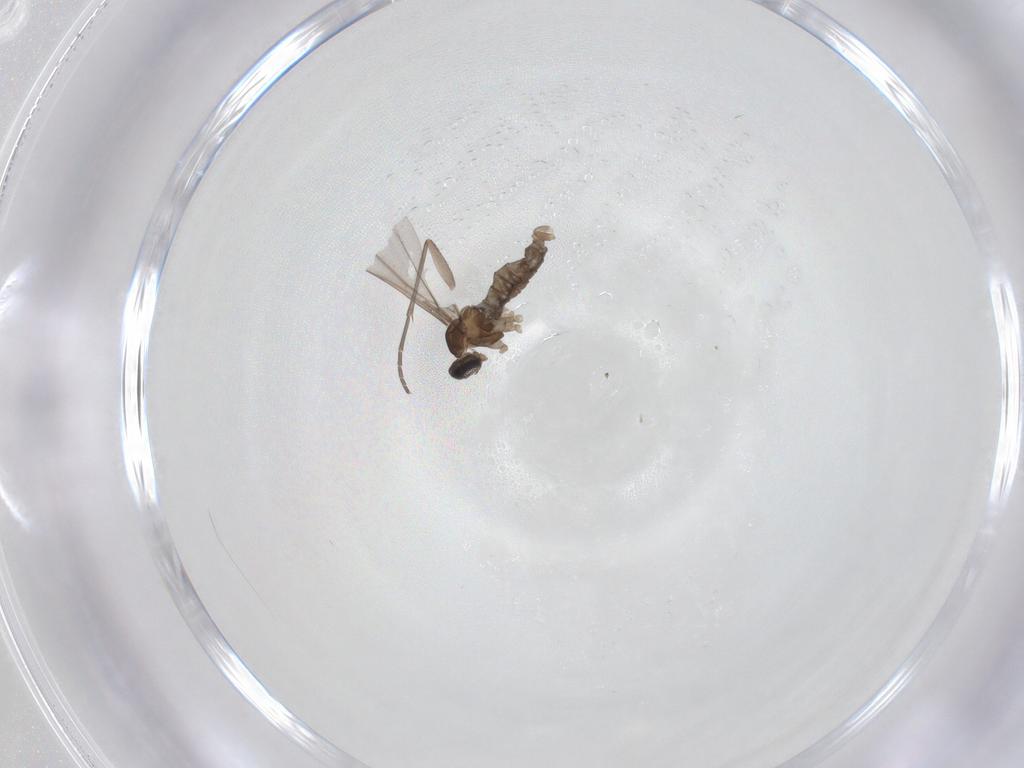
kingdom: Animalia
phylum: Arthropoda
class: Insecta
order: Diptera
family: Cecidomyiidae
